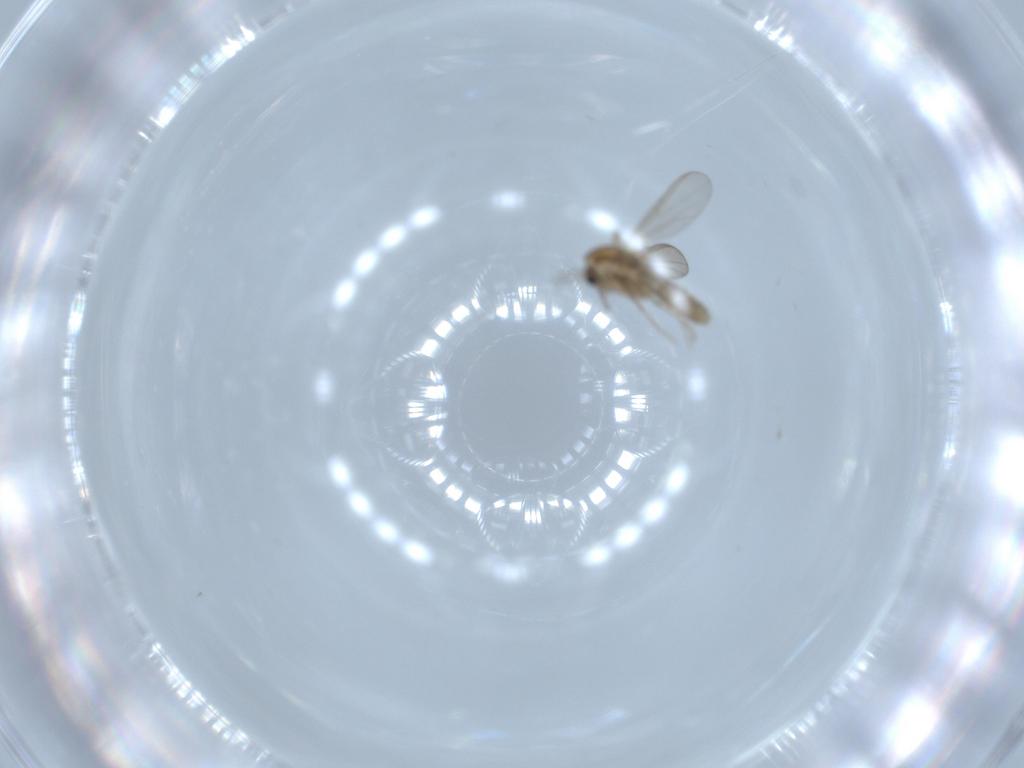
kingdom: Animalia
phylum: Arthropoda
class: Insecta
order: Diptera
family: Chironomidae
